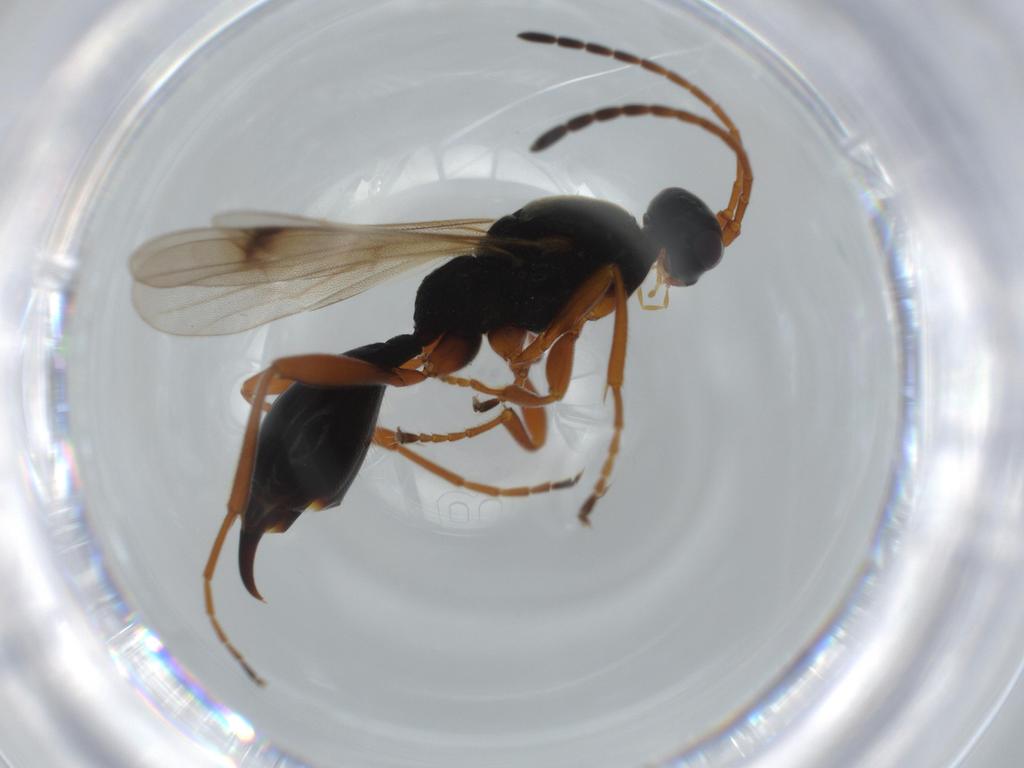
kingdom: Animalia
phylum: Arthropoda
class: Insecta
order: Hymenoptera
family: Proctotrupidae
